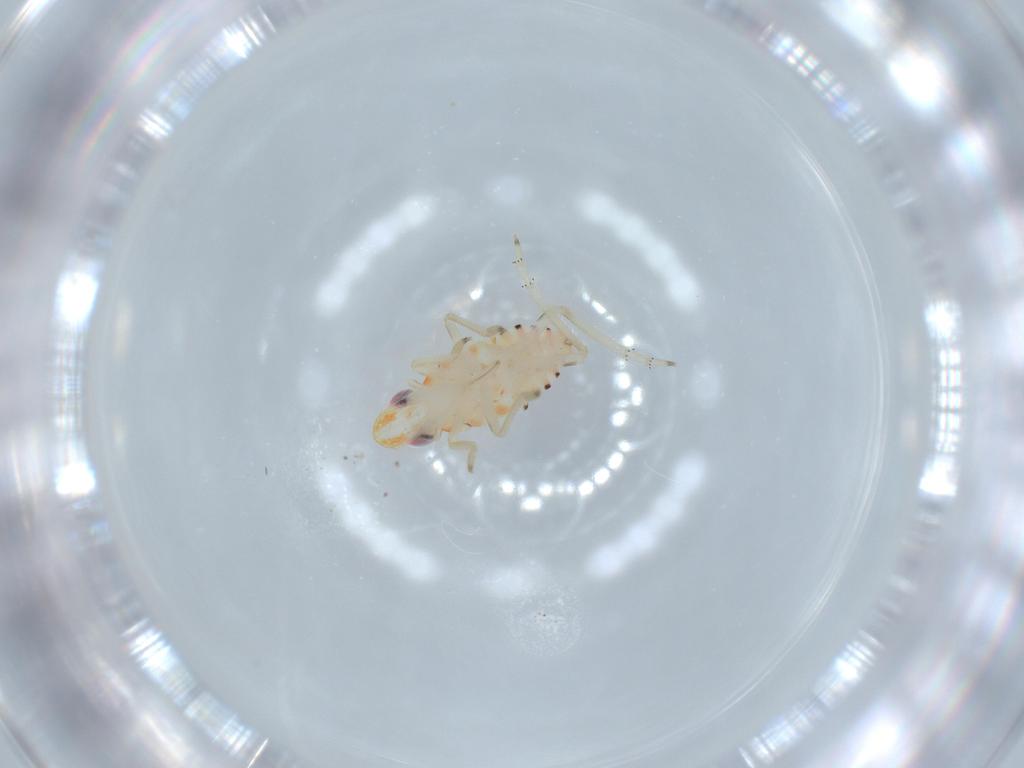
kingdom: Animalia
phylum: Arthropoda
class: Insecta
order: Hemiptera
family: Tropiduchidae
